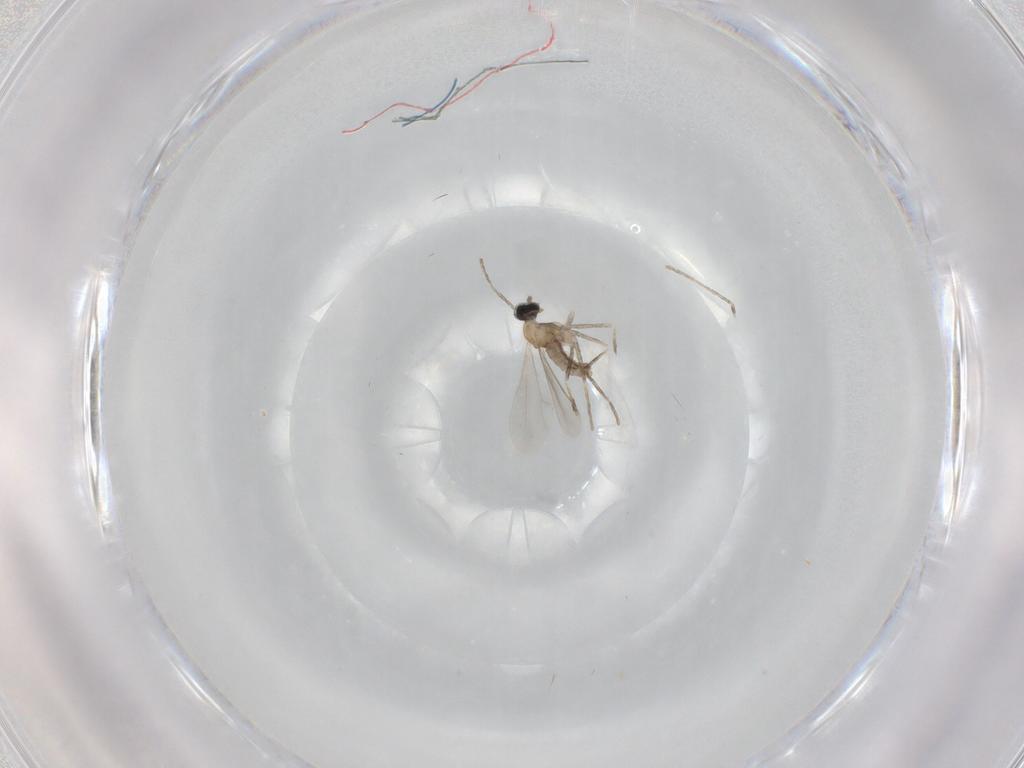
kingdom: Animalia
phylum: Arthropoda
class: Insecta
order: Diptera
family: Cecidomyiidae
